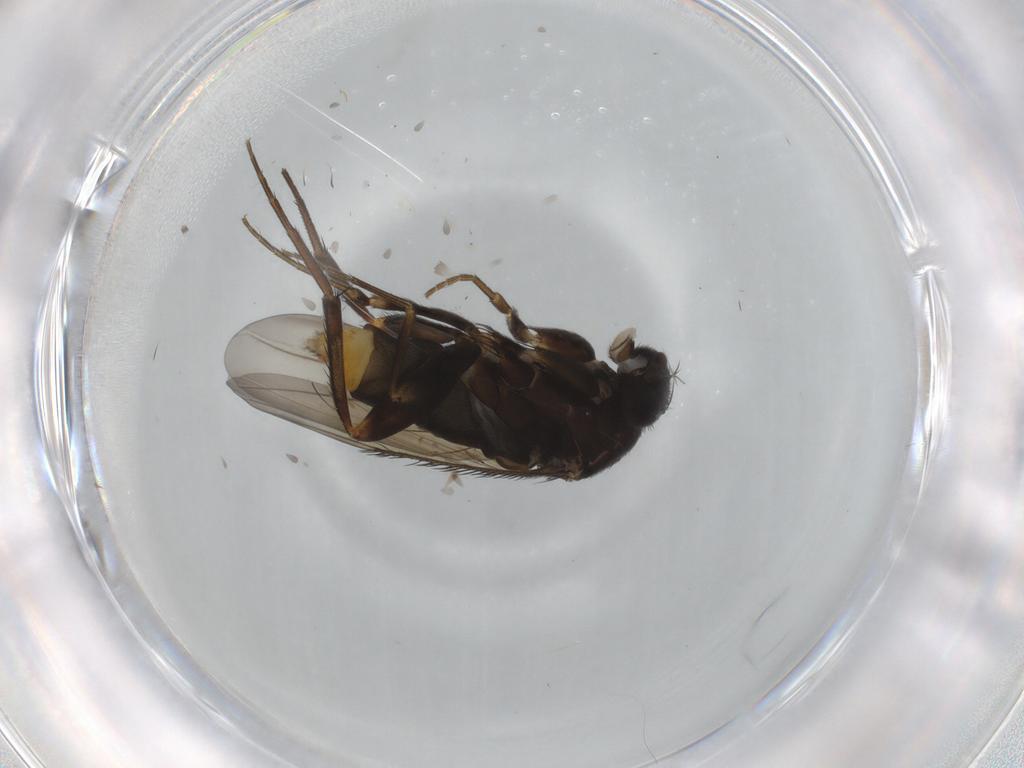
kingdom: Animalia
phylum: Arthropoda
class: Insecta
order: Diptera
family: Phoridae
